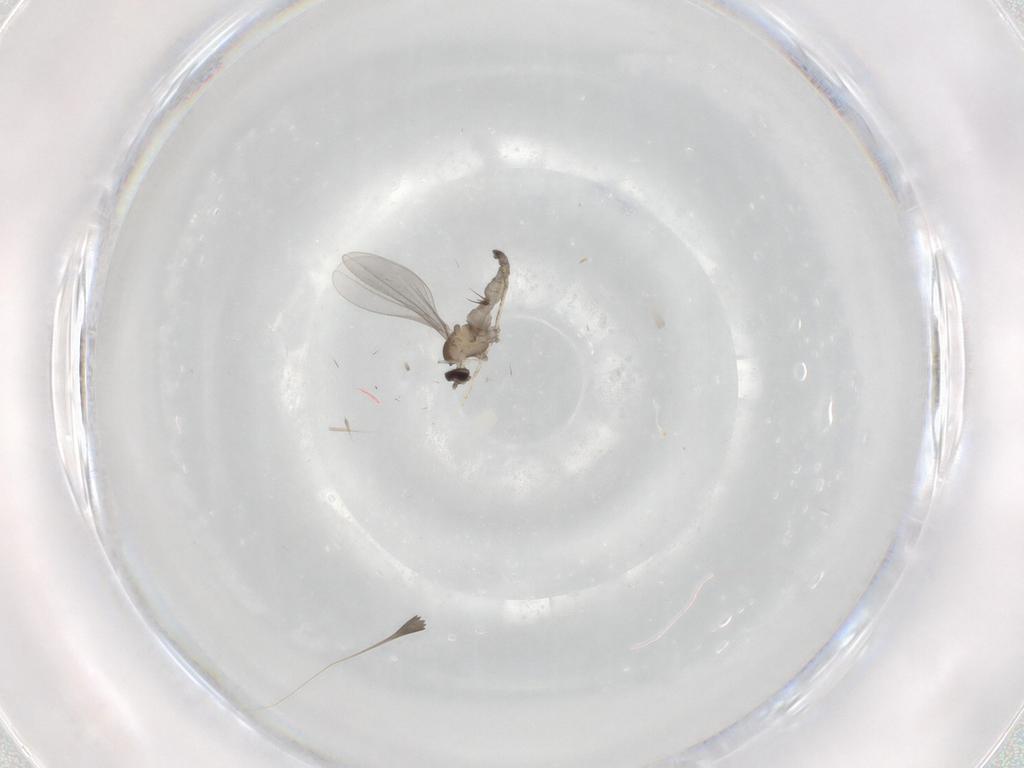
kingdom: Animalia
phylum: Arthropoda
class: Insecta
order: Diptera
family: Cecidomyiidae
